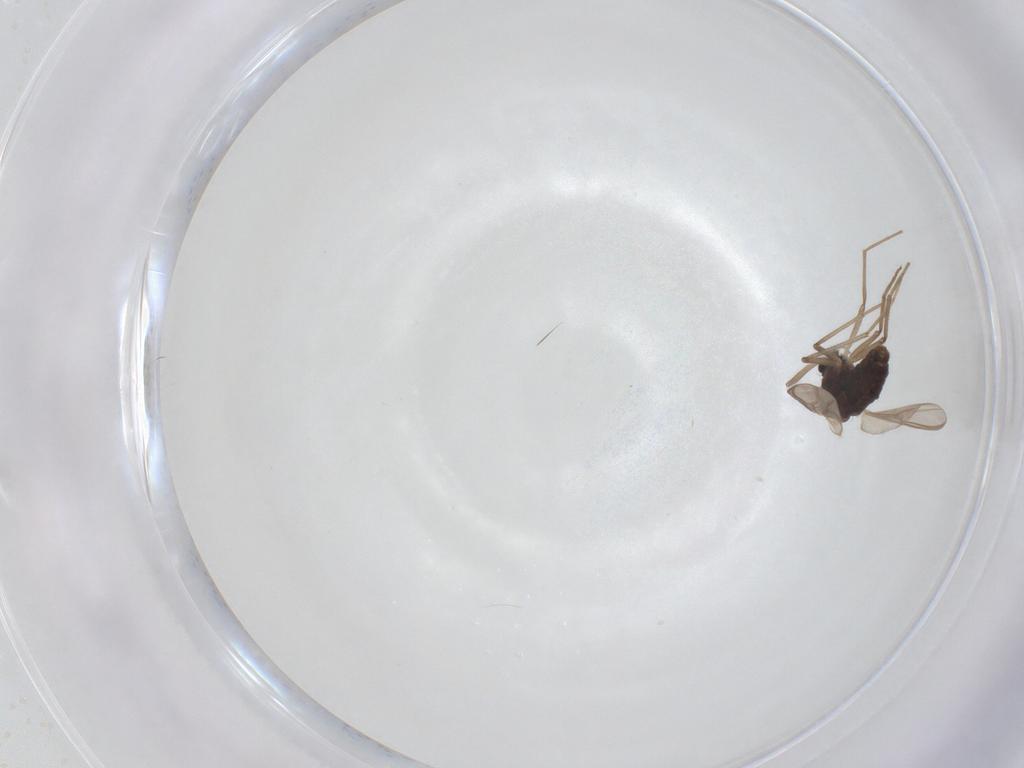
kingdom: Animalia
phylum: Arthropoda
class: Insecta
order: Diptera
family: Chironomidae
